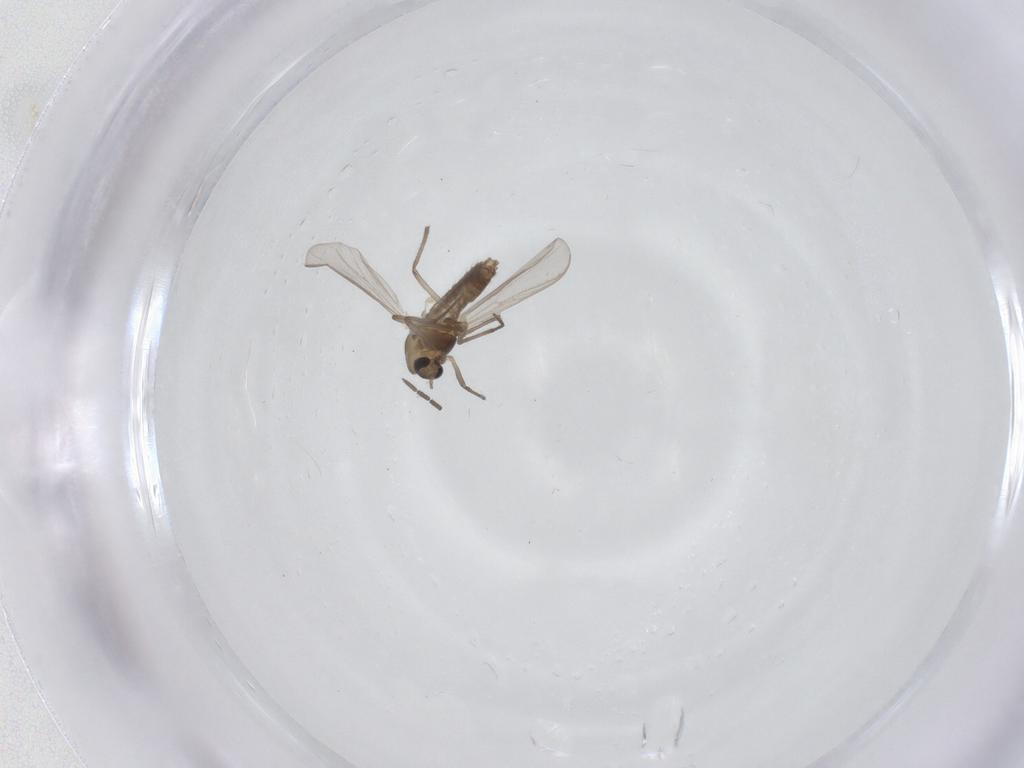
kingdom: Animalia
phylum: Arthropoda
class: Insecta
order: Diptera
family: Chironomidae
